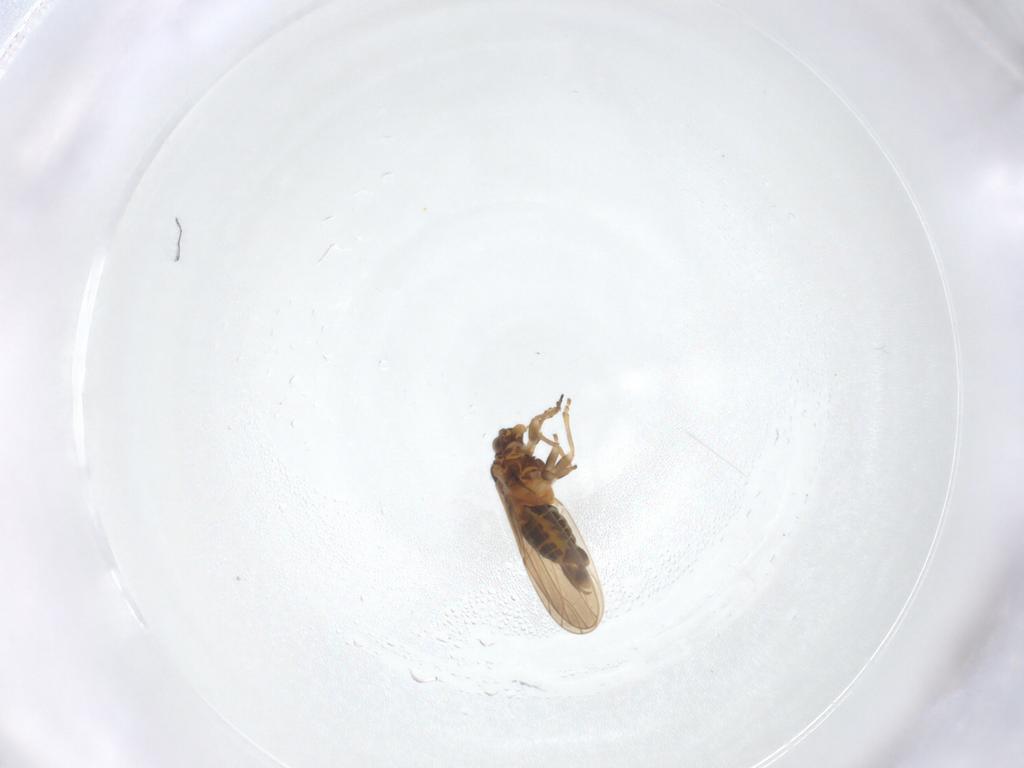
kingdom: Animalia
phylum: Arthropoda
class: Insecta
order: Hemiptera
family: Aphalaridae
